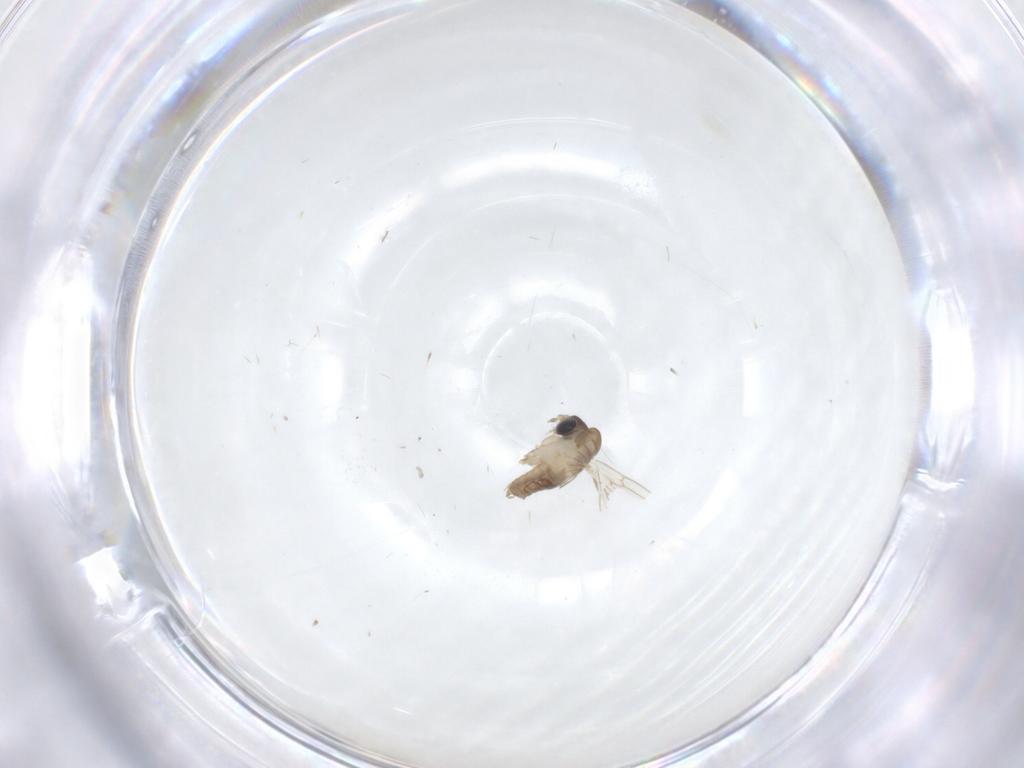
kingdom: Animalia
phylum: Arthropoda
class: Insecta
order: Diptera
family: Psychodidae
